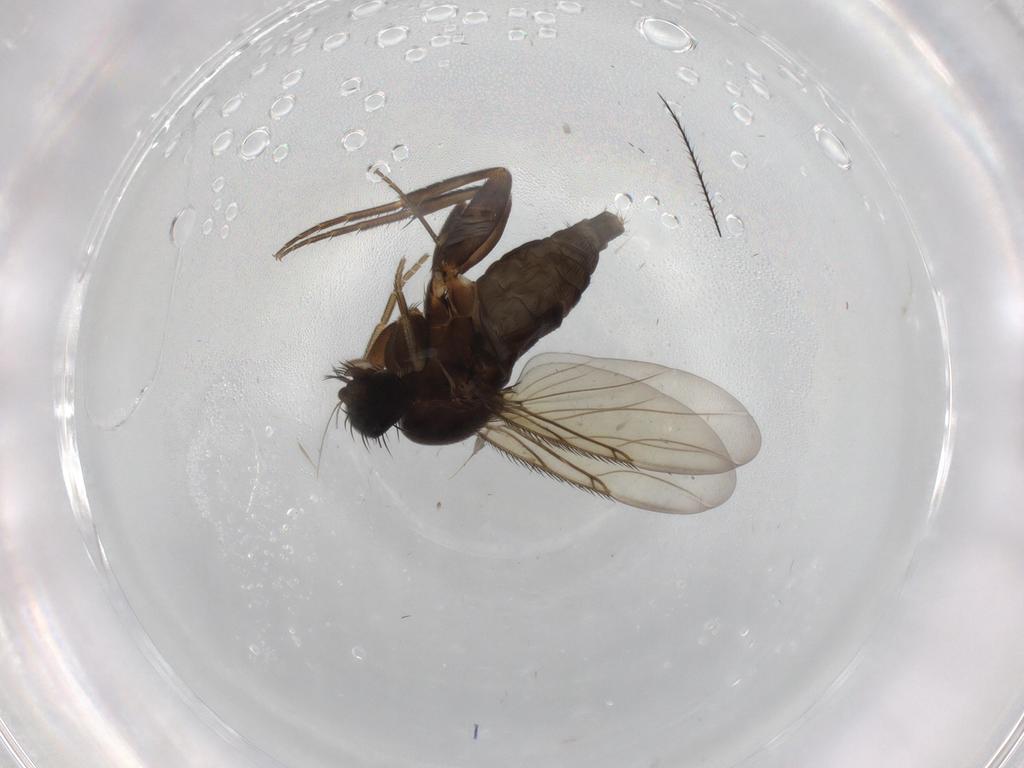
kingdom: Animalia
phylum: Arthropoda
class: Insecta
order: Diptera
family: Phoridae
